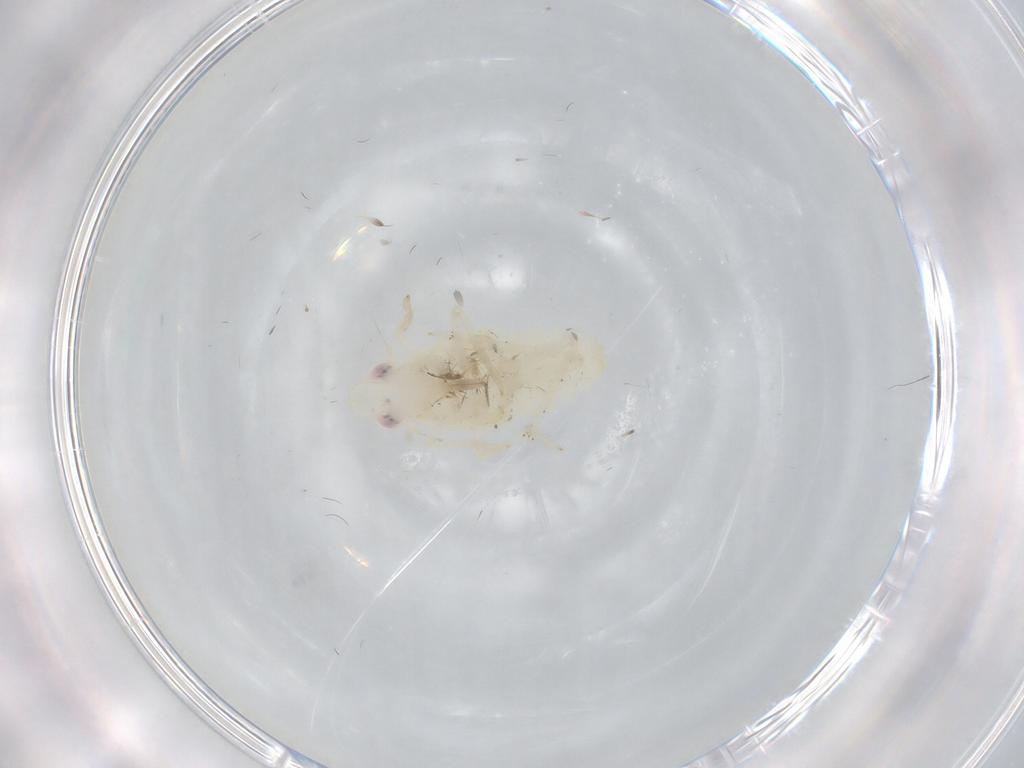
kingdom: Animalia
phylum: Arthropoda
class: Insecta
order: Hemiptera
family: Tropiduchidae
